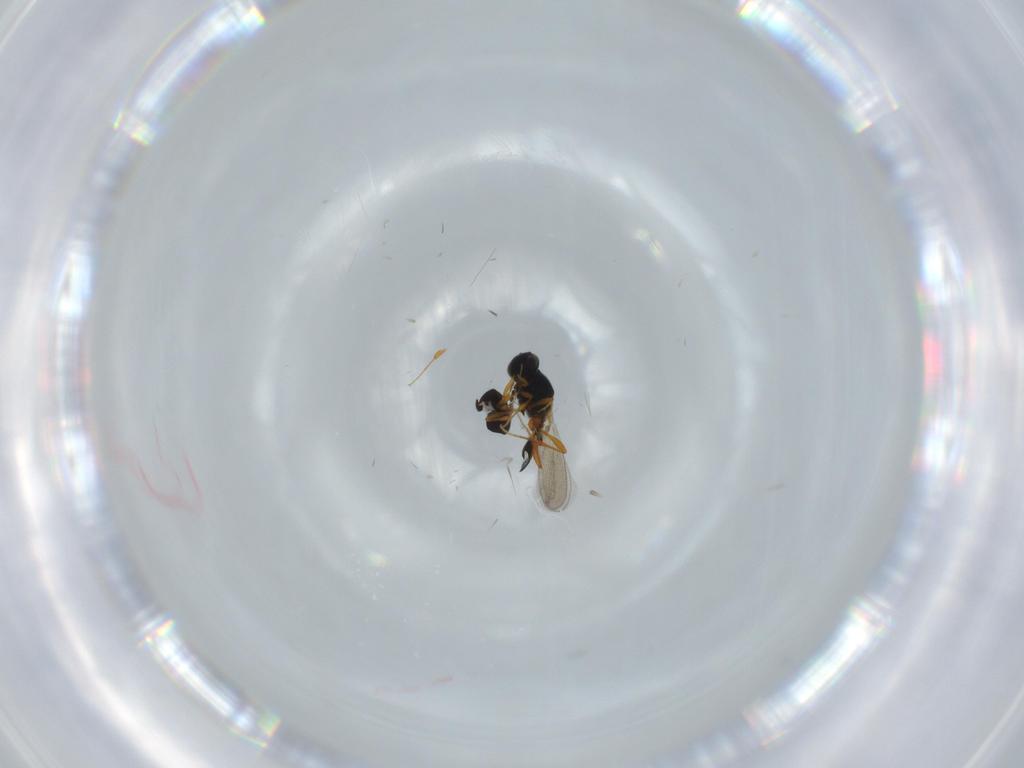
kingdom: Animalia
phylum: Arthropoda
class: Insecta
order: Hymenoptera
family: Platygastridae
